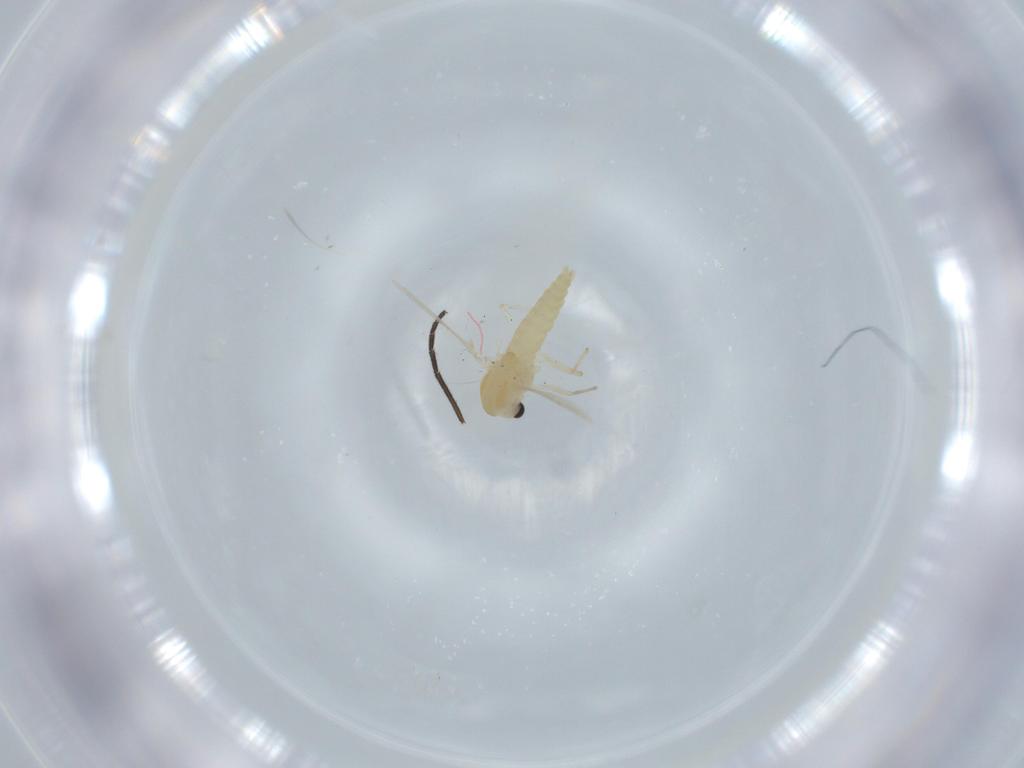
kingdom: Animalia
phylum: Arthropoda
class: Insecta
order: Diptera
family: Chironomidae
